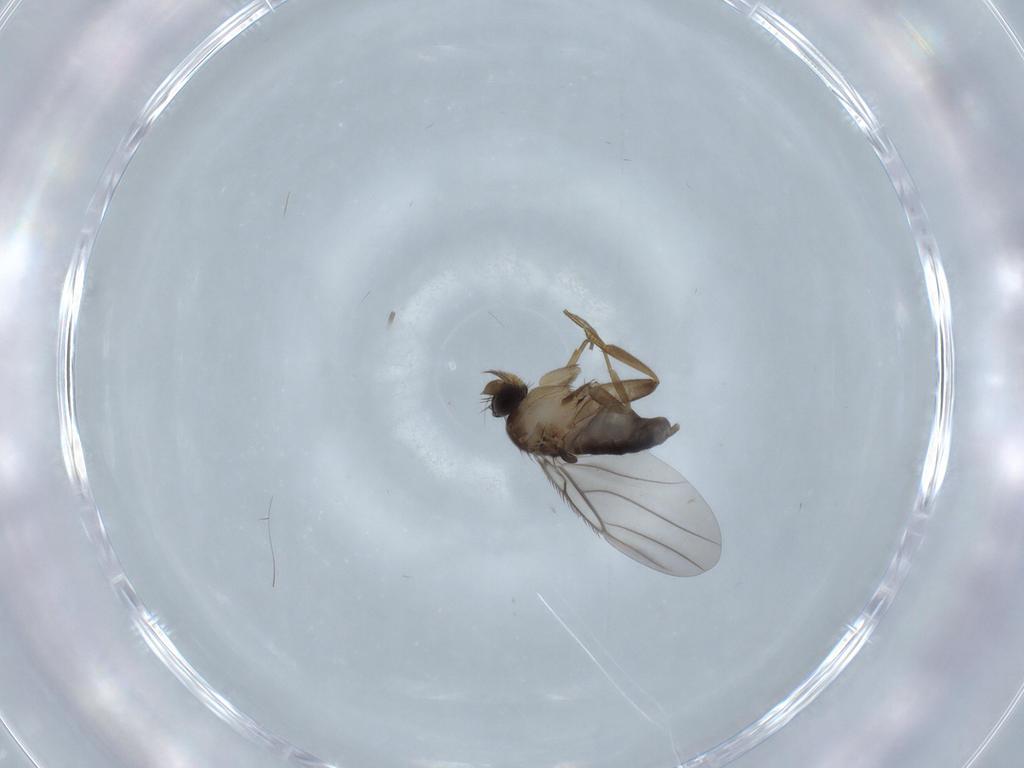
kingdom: Animalia
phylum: Arthropoda
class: Insecta
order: Diptera
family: Phoridae
